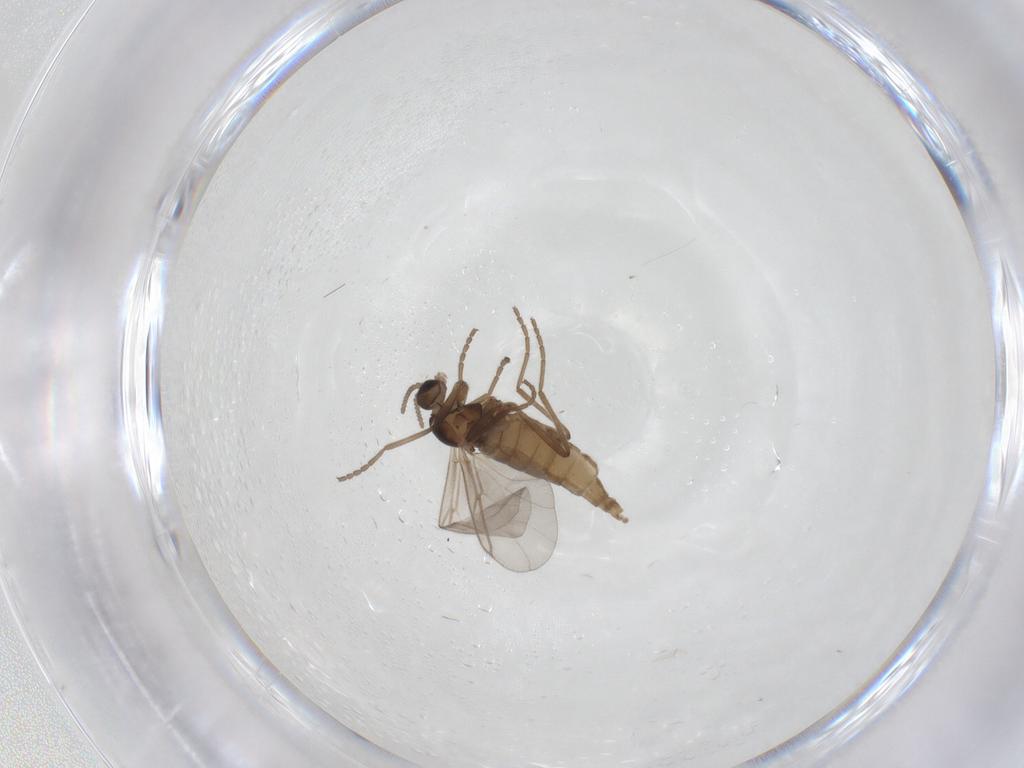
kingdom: Animalia
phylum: Arthropoda
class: Insecta
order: Diptera
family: Cecidomyiidae
